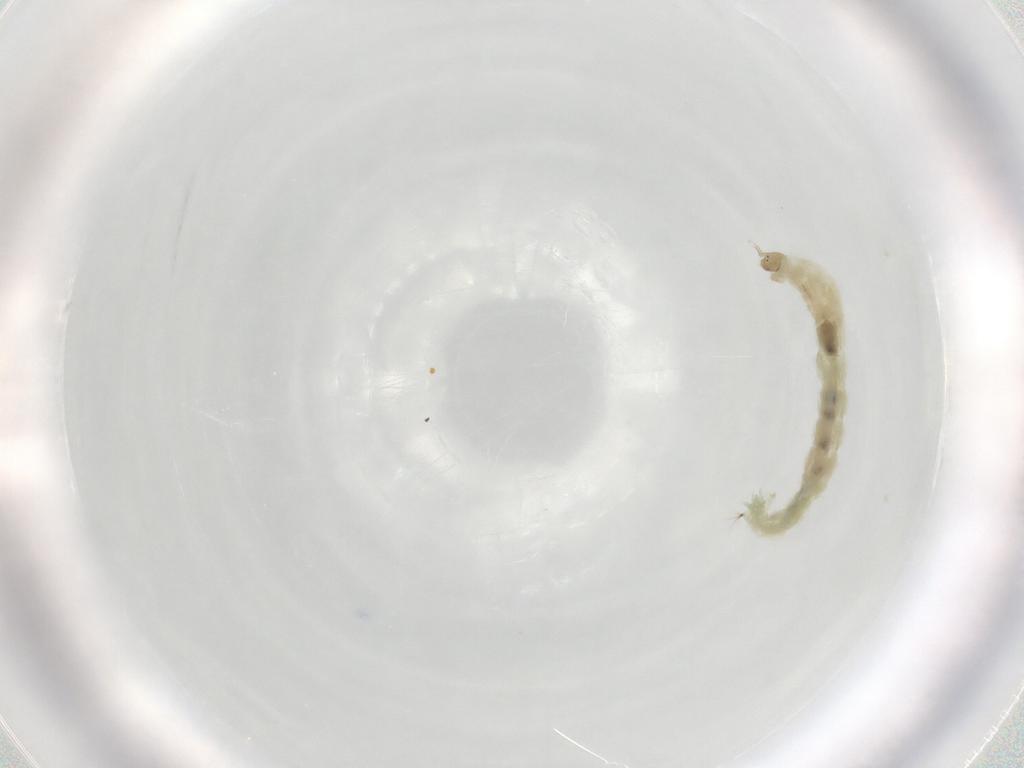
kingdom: Animalia
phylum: Arthropoda
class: Insecta
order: Diptera
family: Chironomidae
